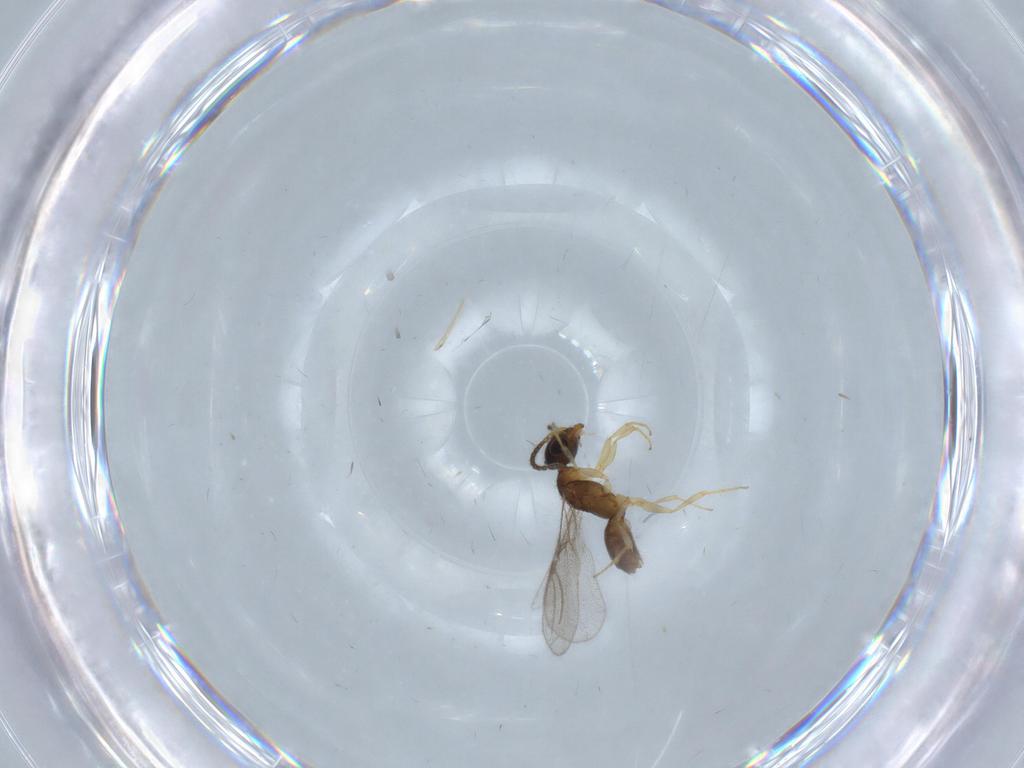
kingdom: Animalia
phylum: Arthropoda
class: Insecta
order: Hymenoptera
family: Bethylidae
